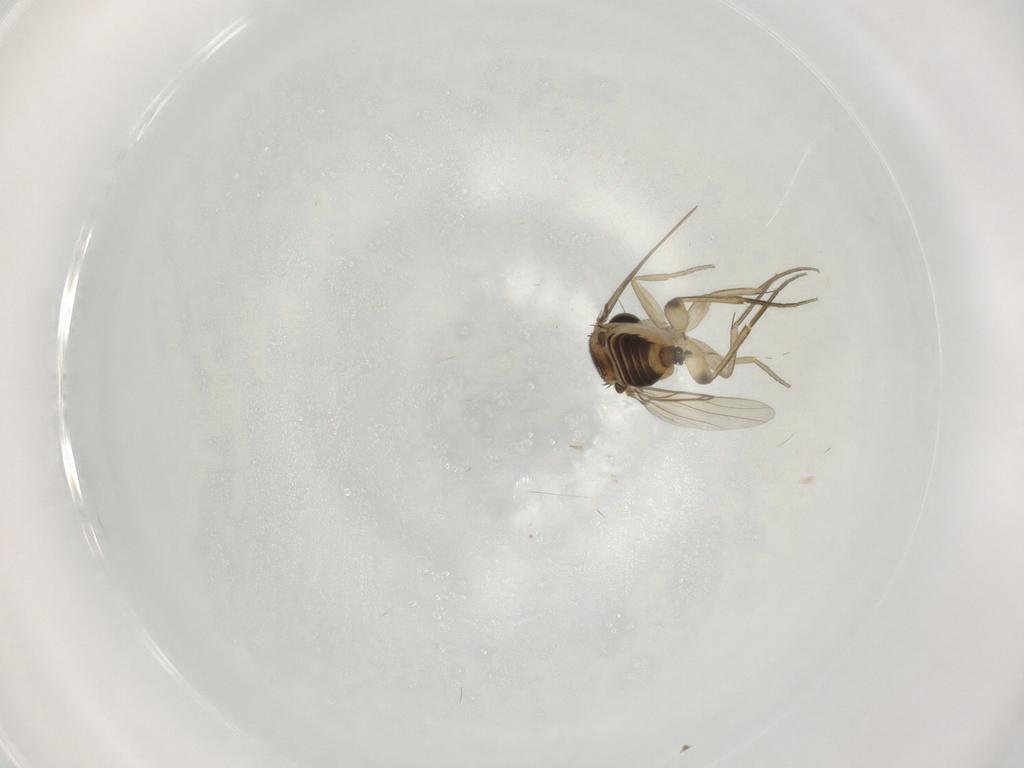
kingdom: Animalia
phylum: Arthropoda
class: Insecta
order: Diptera
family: Phoridae
